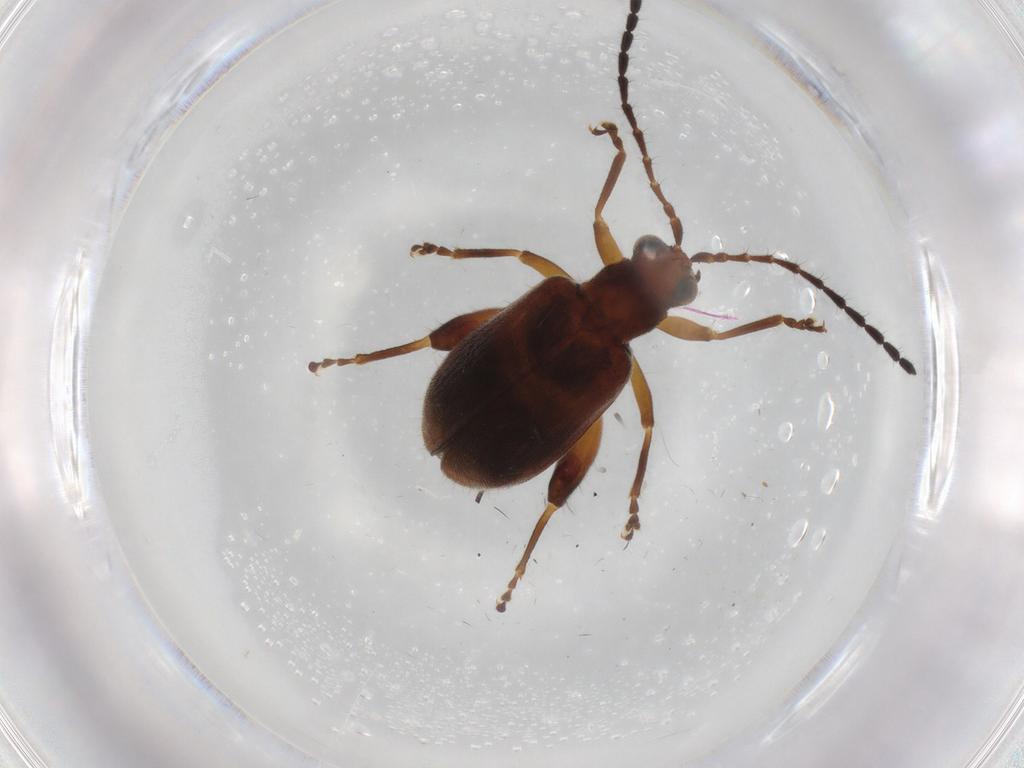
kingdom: Animalia
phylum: Arthropoda
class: Insecta
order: Coleoptera
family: Chrysomelidae
